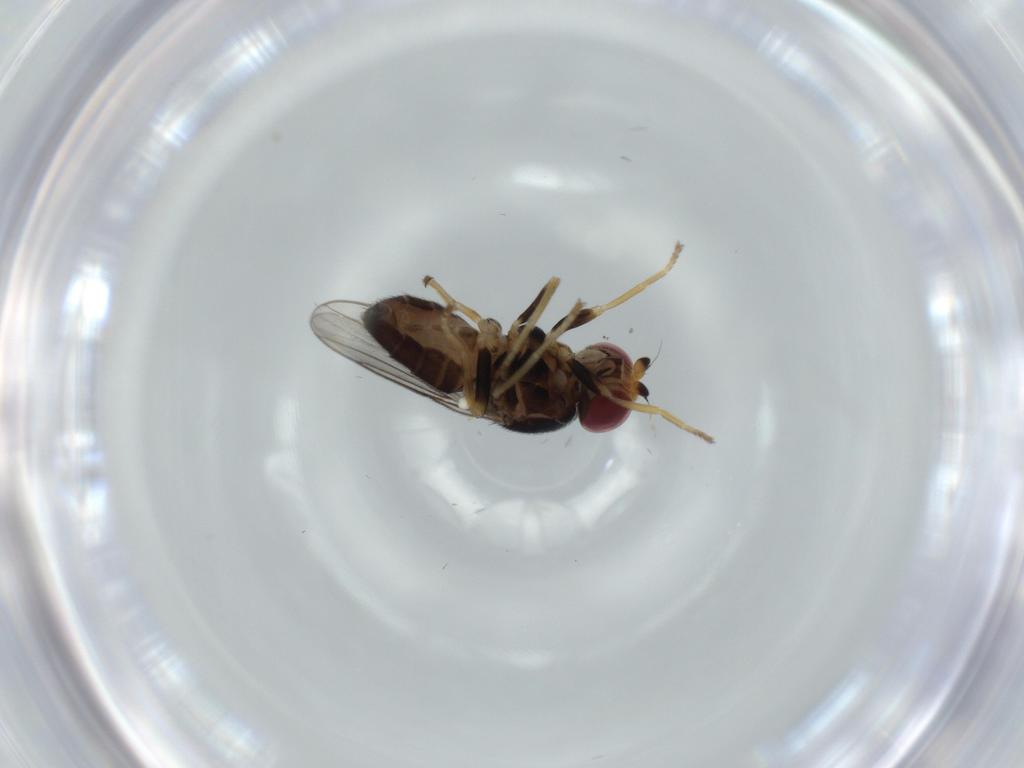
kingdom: Animalia
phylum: Arthropoda
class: Insecta
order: Diptera
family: Chloropidae
